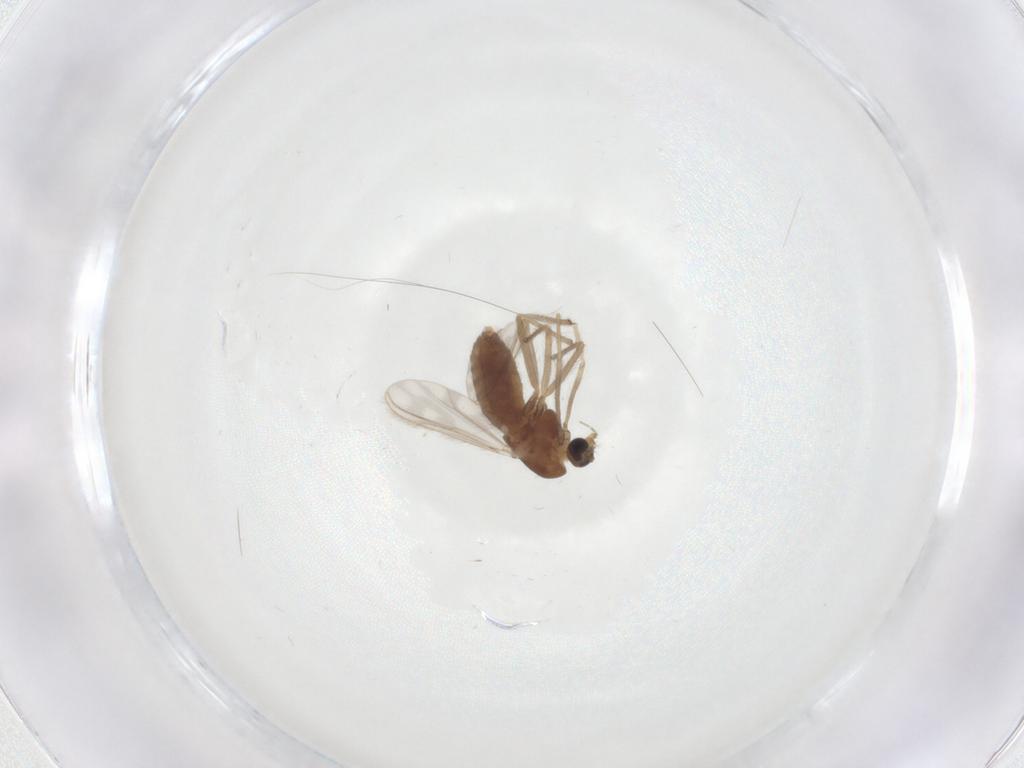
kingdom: Animalia
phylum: Arthropoda
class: Insecta
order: Diptera
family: Chironomidae
